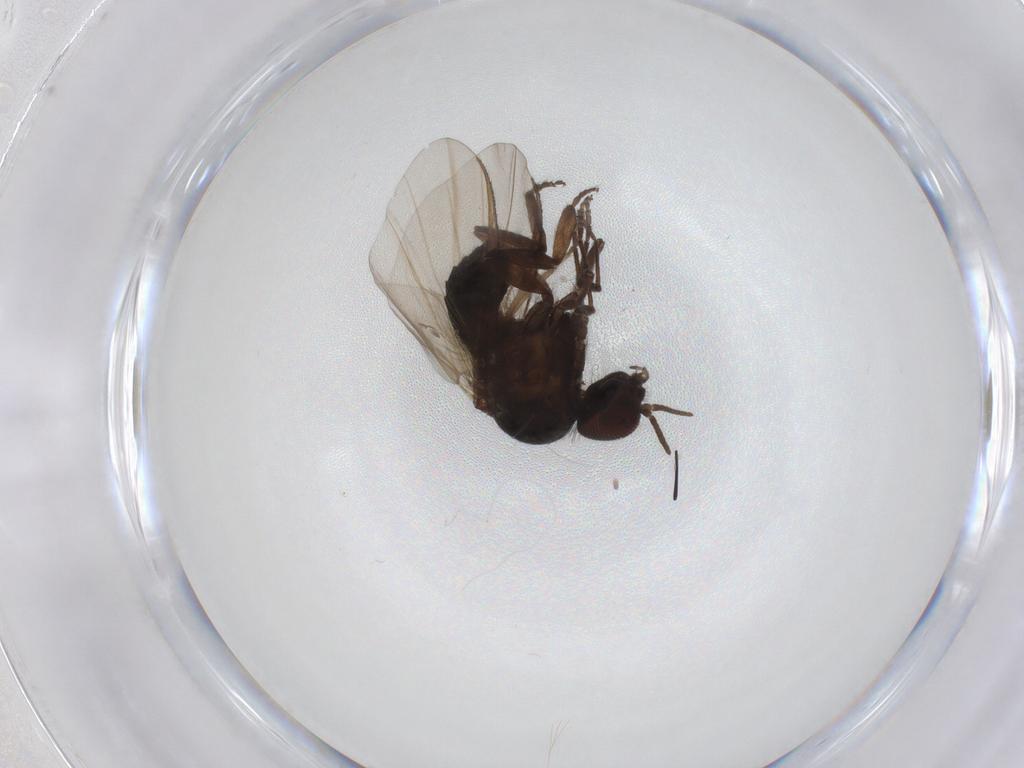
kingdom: Animalia
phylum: Arthropoda
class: Insecta
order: Diptera
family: Simuliidae
